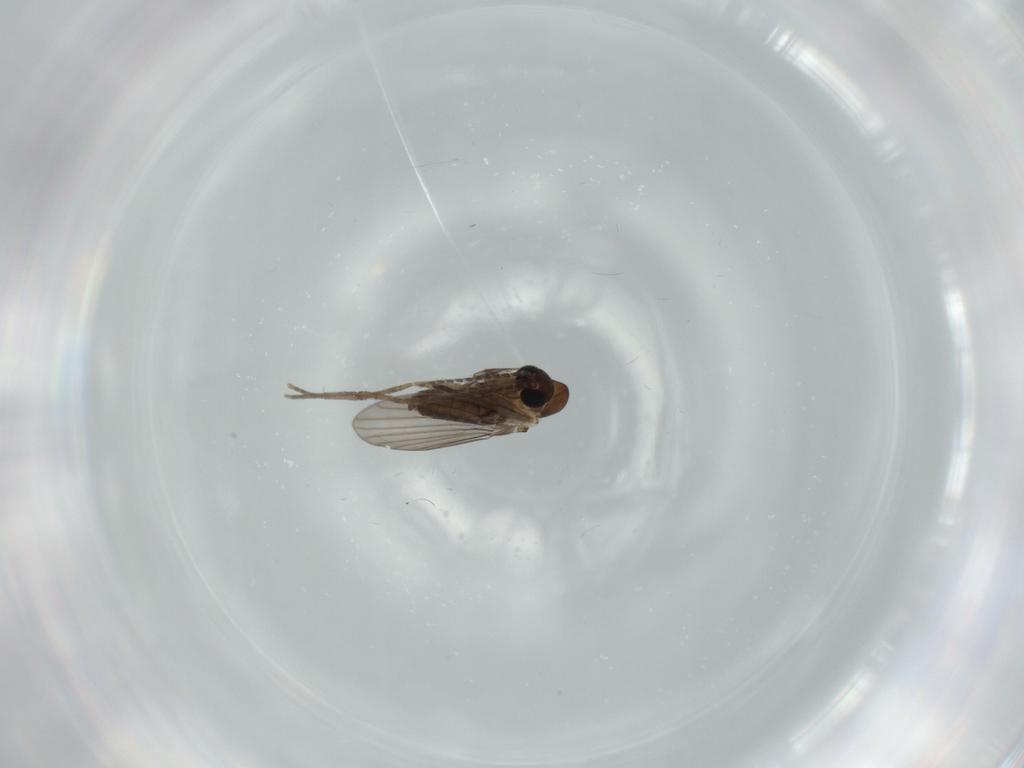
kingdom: Animalia
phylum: Arthropoda
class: Insecta
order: Diptera
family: Psychodidae
